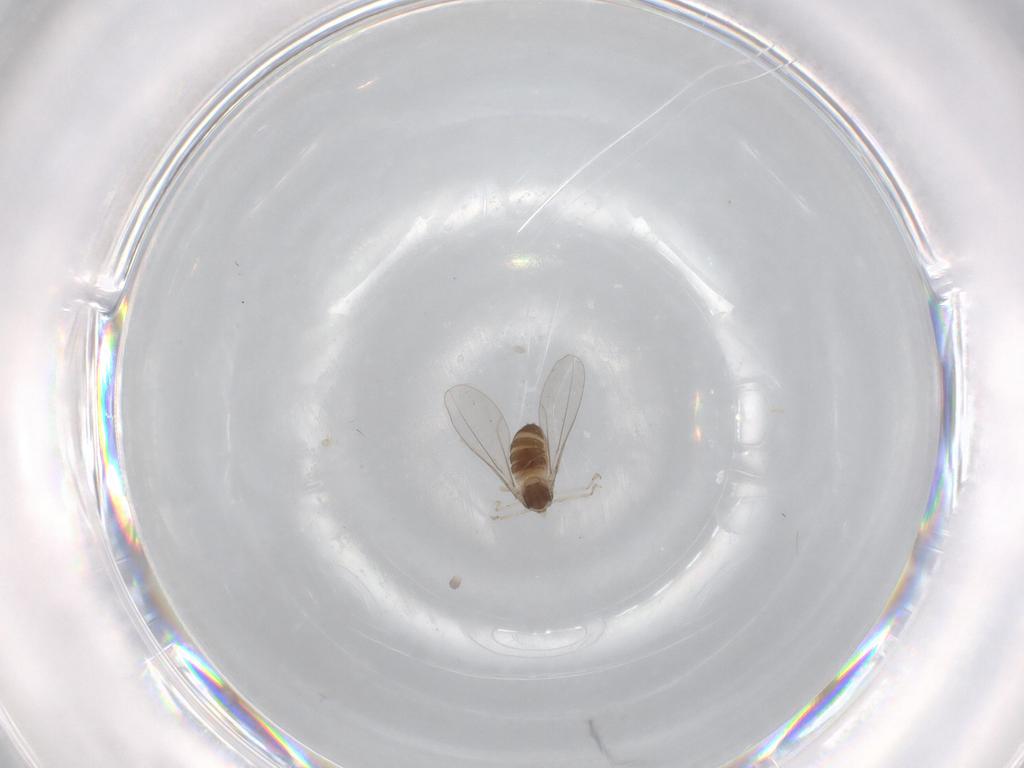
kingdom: Animalia
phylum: Arthropoda
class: Insecta
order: Diptera
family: Cecidomyiidae
